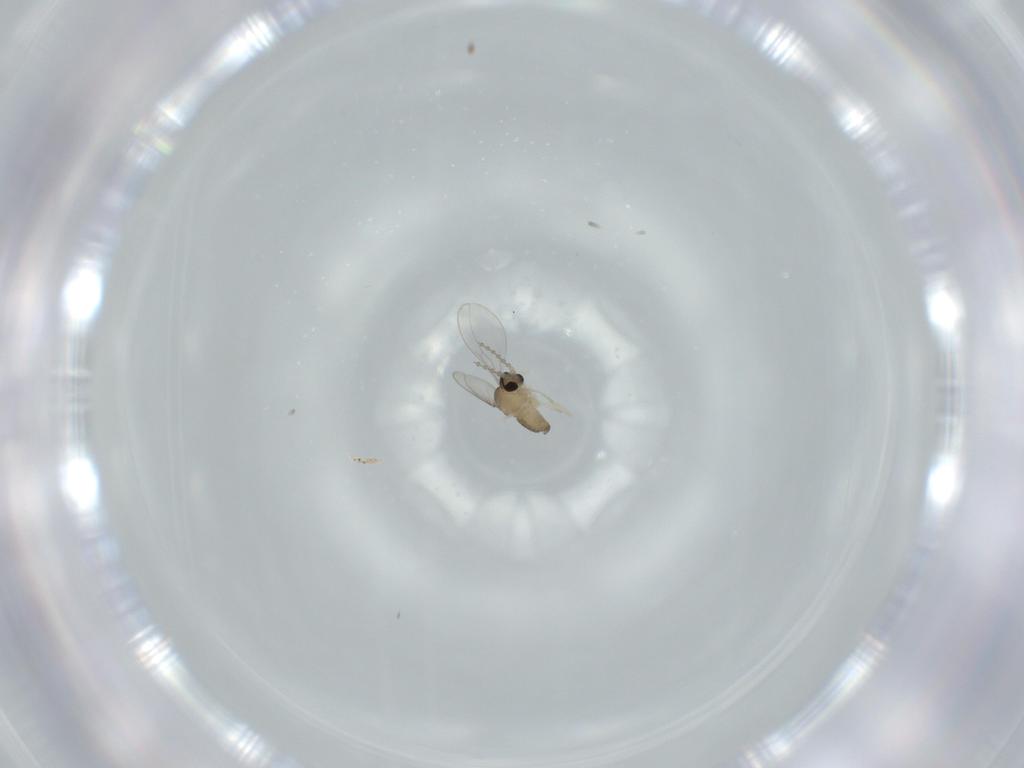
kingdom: Animalia
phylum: Arthropoda
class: Insecta
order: Diptera
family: Cecidomyiidae
